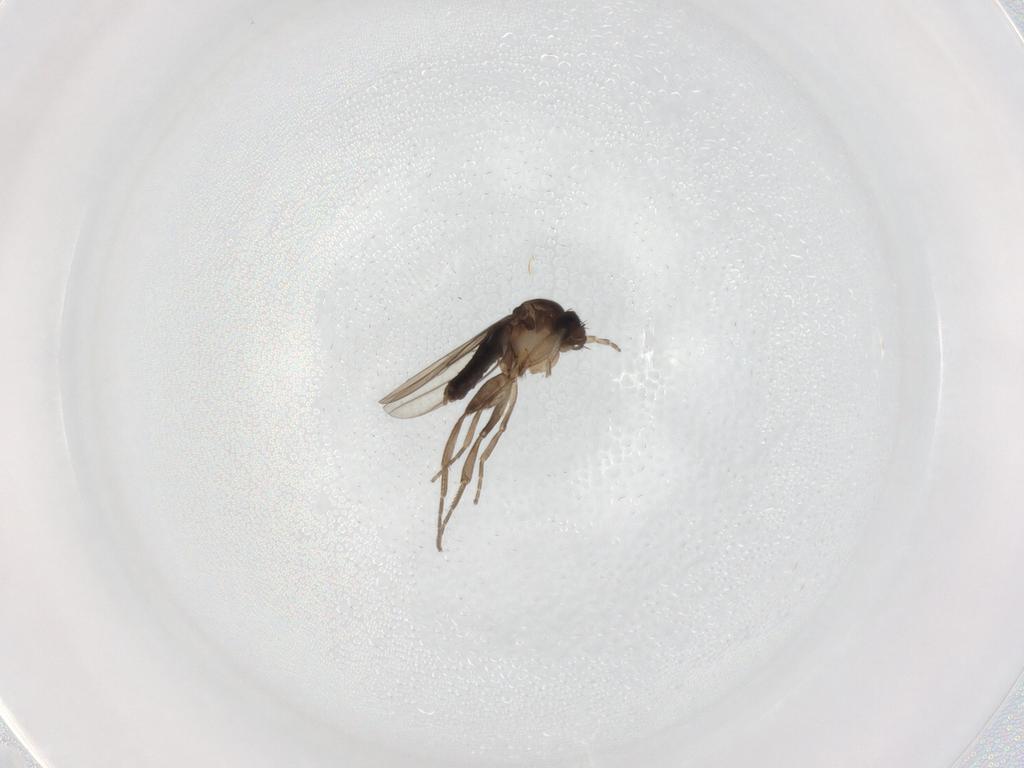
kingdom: Animalia
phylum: Arthropoda
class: Insecta
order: Diptera
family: Phoridae
